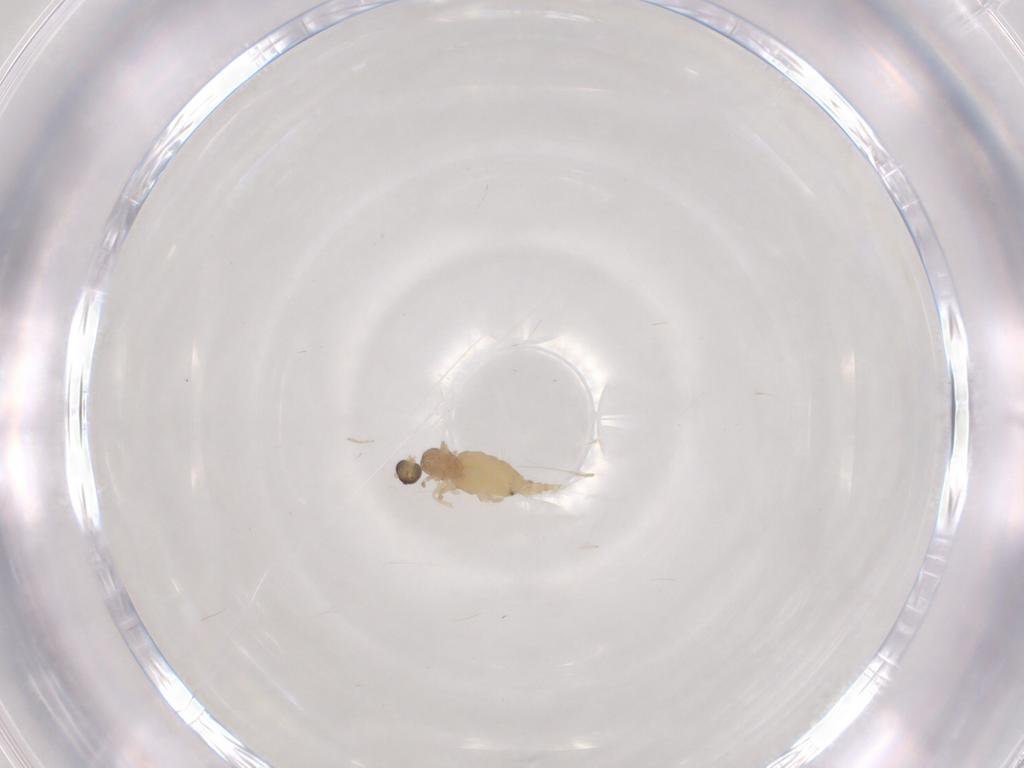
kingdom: Animalia
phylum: Arthropoda
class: Insecta
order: Diptera
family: Cecidomyiidae
